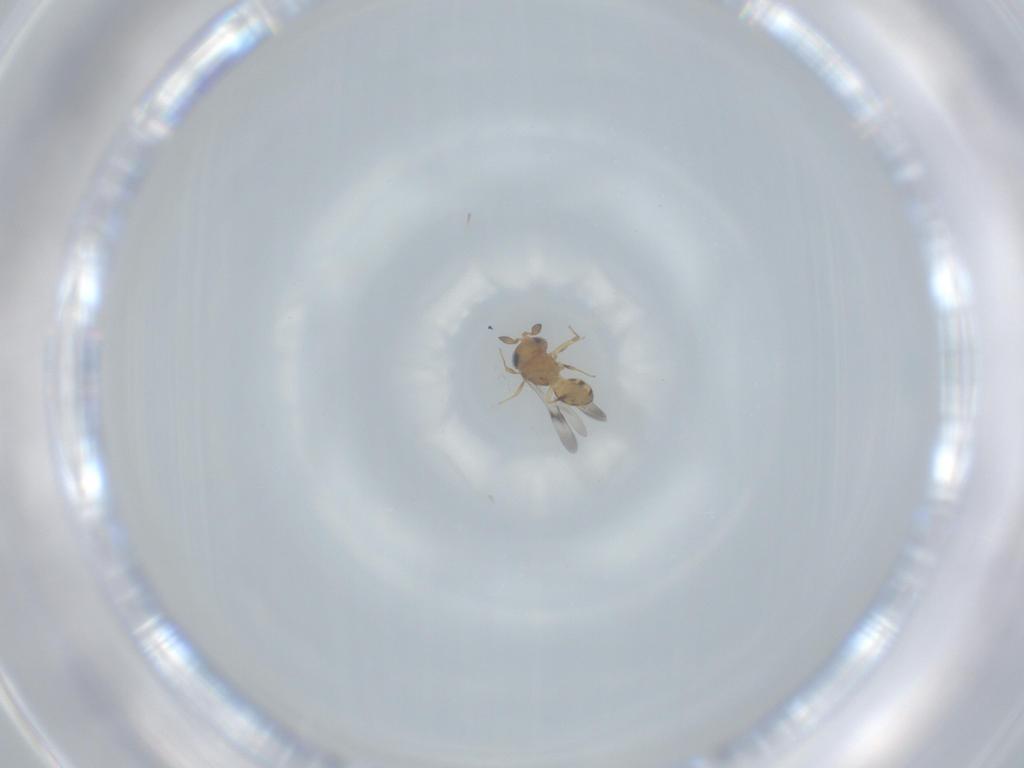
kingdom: Animalia
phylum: Arthropoda
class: Insecta
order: Hymenoptera
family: Scelionidae
